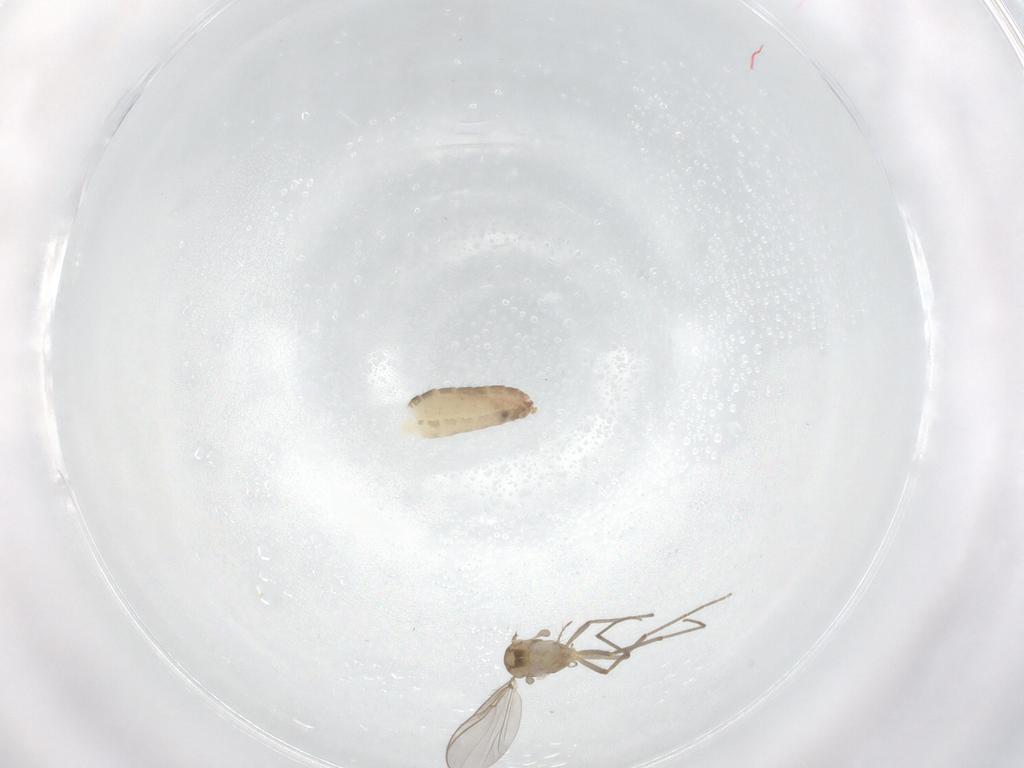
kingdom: Animalia
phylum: Arthropoda
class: Insecta
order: Diptera
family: Chironomidae
